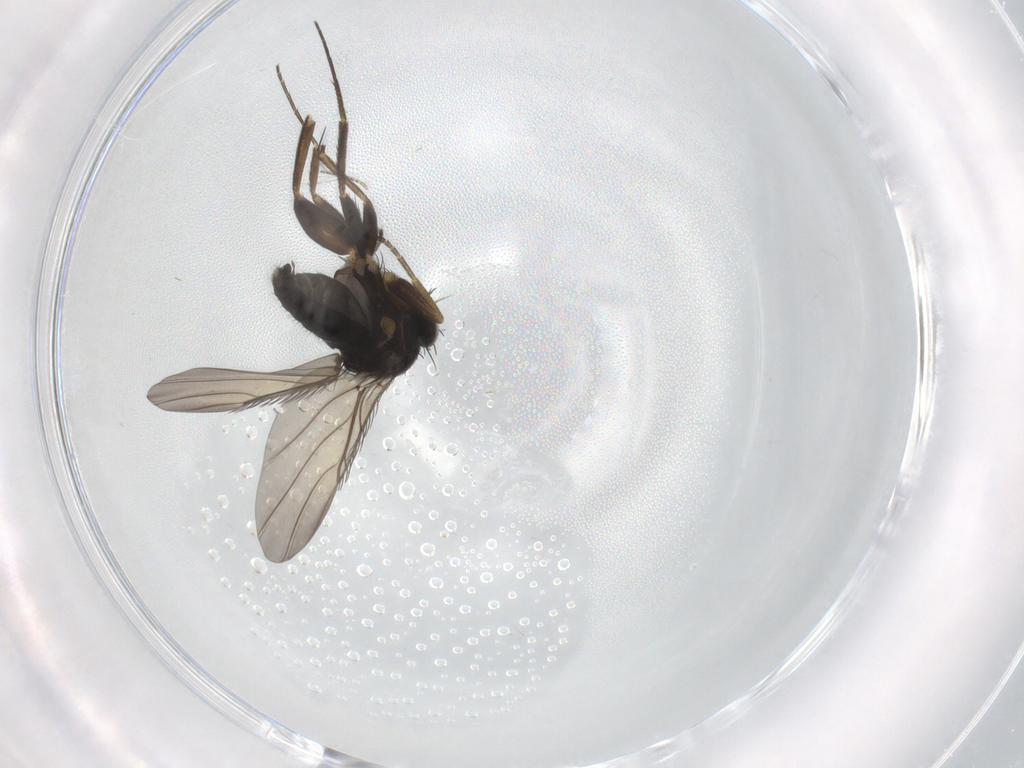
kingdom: Animalia
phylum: Arthropoda
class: Insecta
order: Diptera
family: Phoridae
